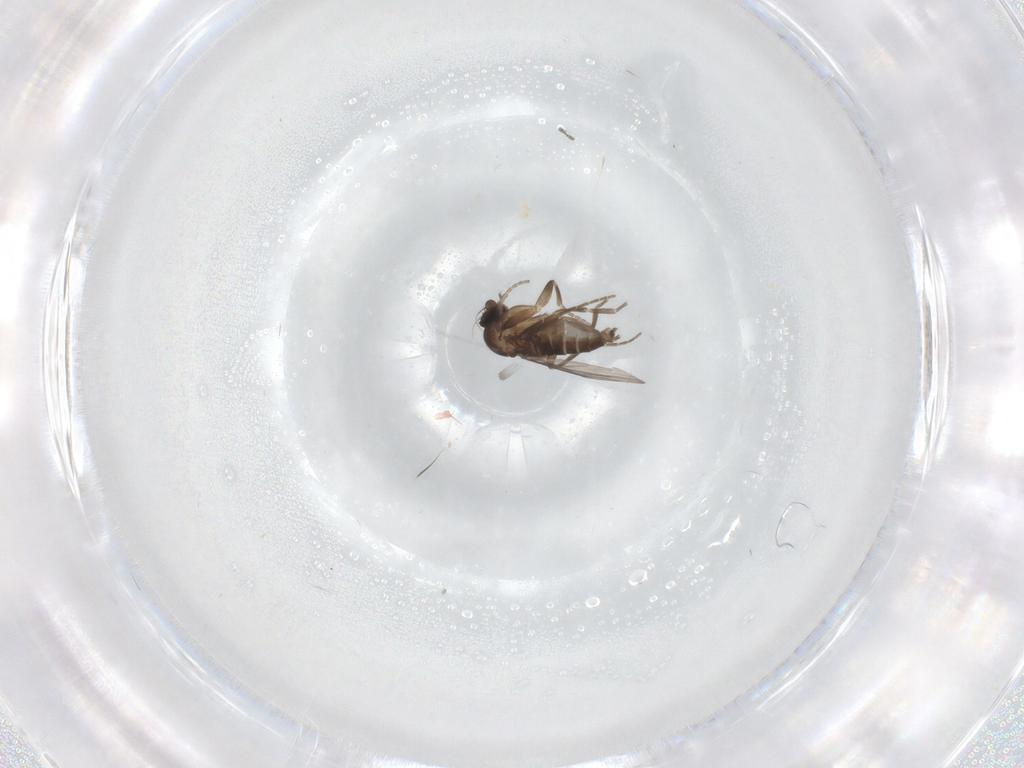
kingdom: Animalia
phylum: Arthropoda
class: Insecta
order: Diptera
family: Phoridae
